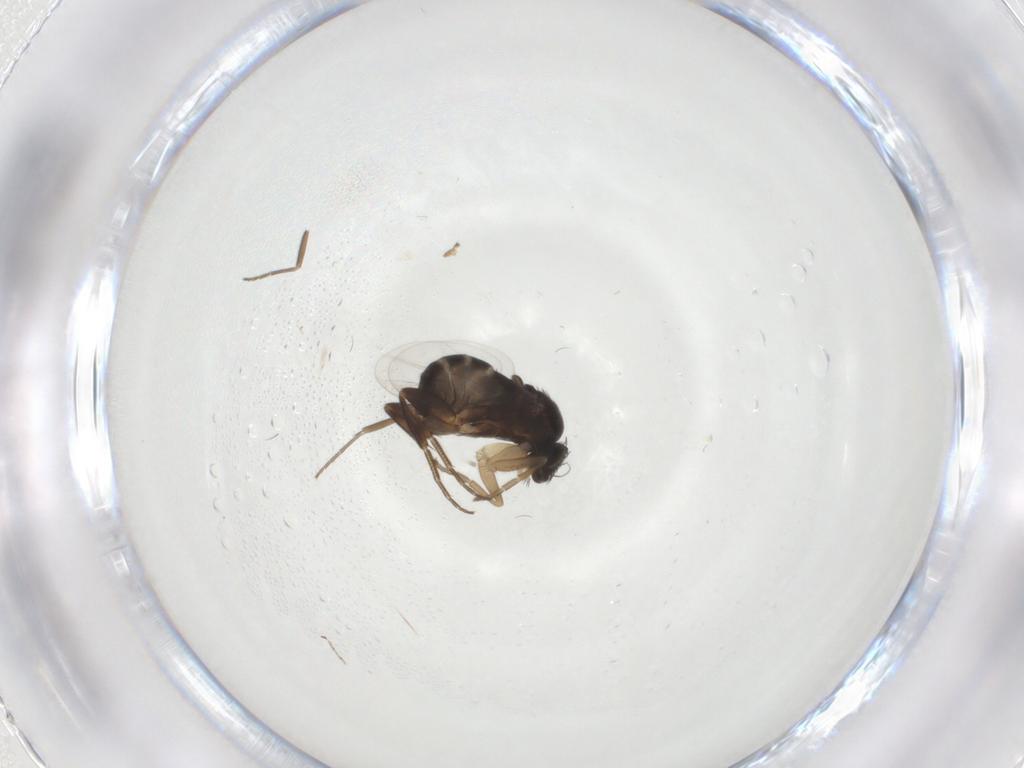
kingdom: Animalia
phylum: Arthropoda
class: Insecta
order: Diptera
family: Phoridae
